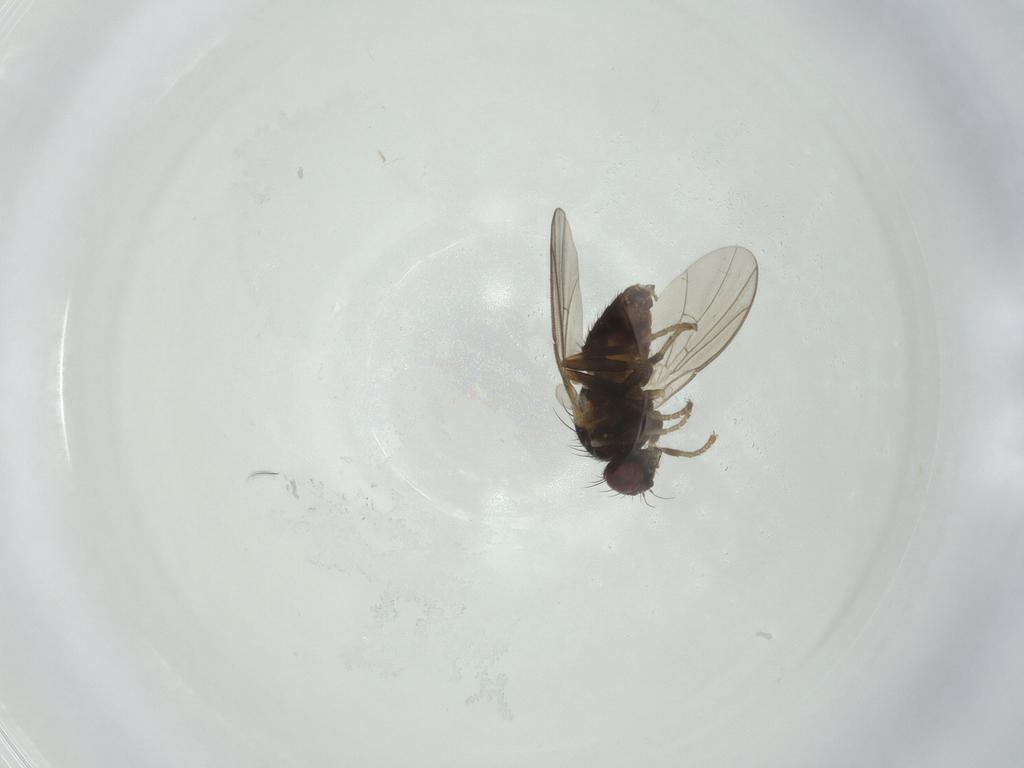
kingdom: Animalia
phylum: Arthropoda
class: Insecta
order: Diptera
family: Agromyzidae
